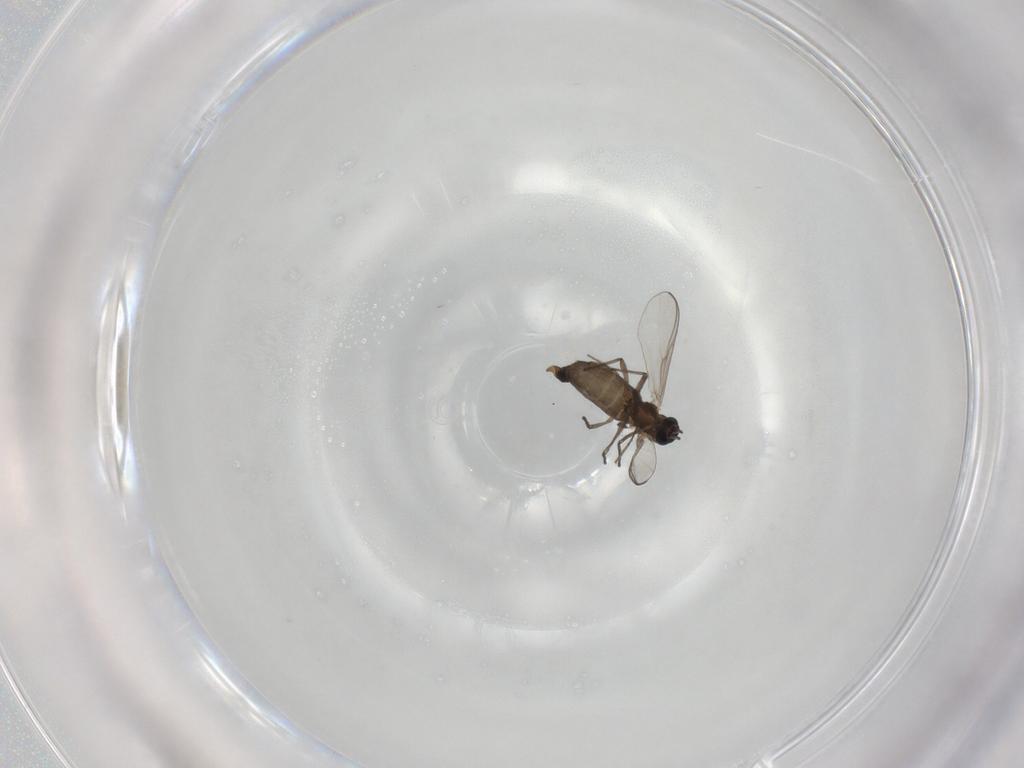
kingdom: Animalia
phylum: Arthropoda
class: Insecta
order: Diptera
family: Chironomidae
